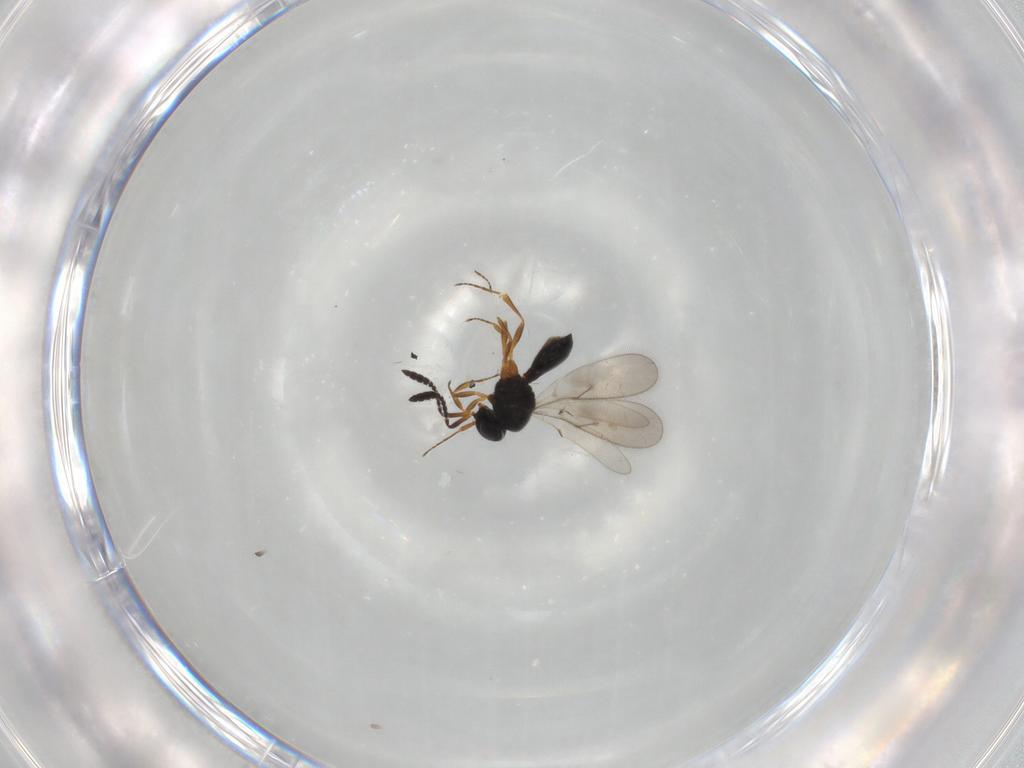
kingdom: Animalia
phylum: Arthropoda
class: Insecta
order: Hymenoptera
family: Scelionidae
